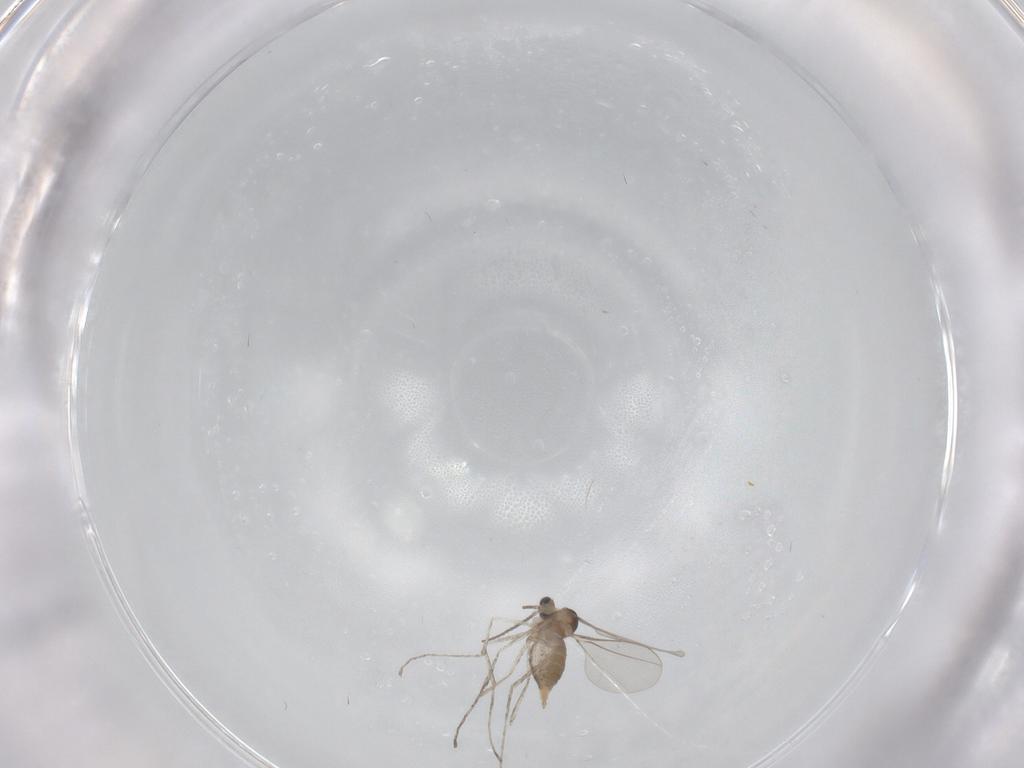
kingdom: Animalia
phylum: Arthropoda
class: Insecta
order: Diptera
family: Cecidomyiidae
